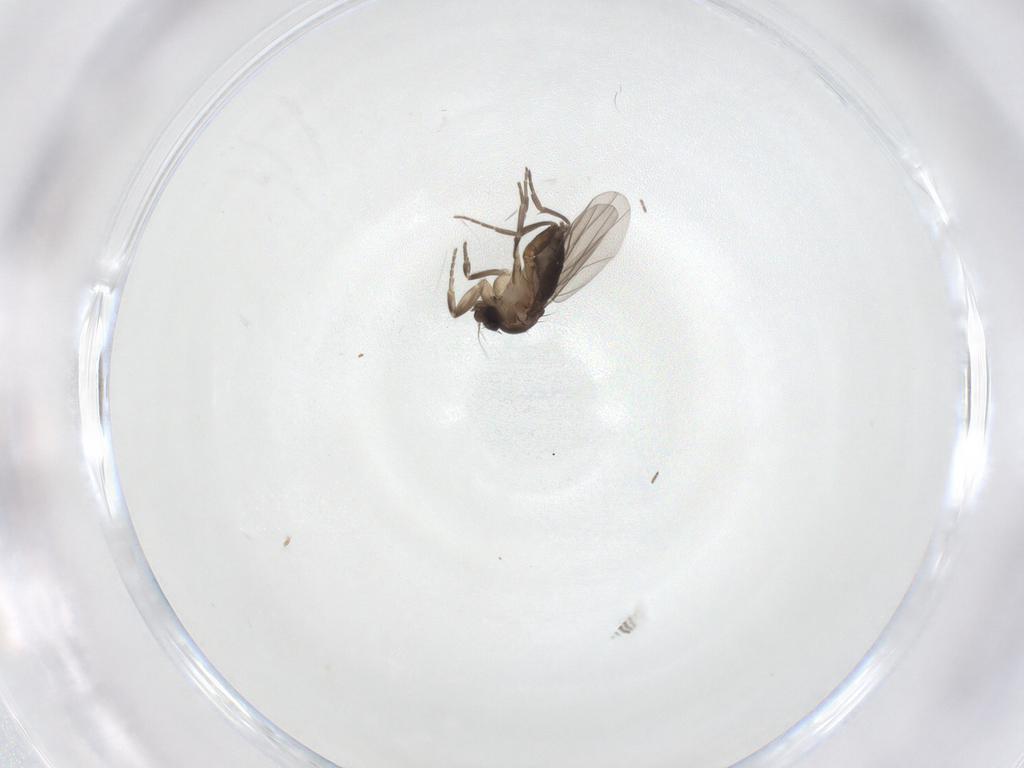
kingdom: Animalia
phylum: Arthropoda
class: Insecta
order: Diptera
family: Sciaridae
